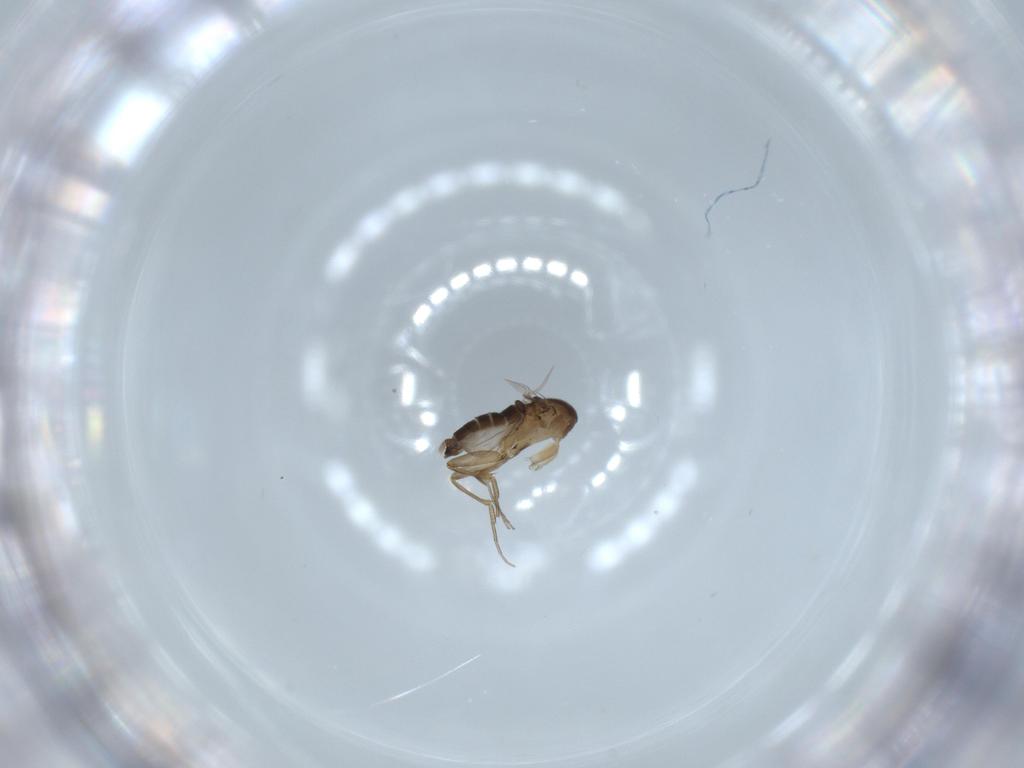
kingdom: Animalia
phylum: Arthropoda
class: Insecta
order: Diptera
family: Phoridae
